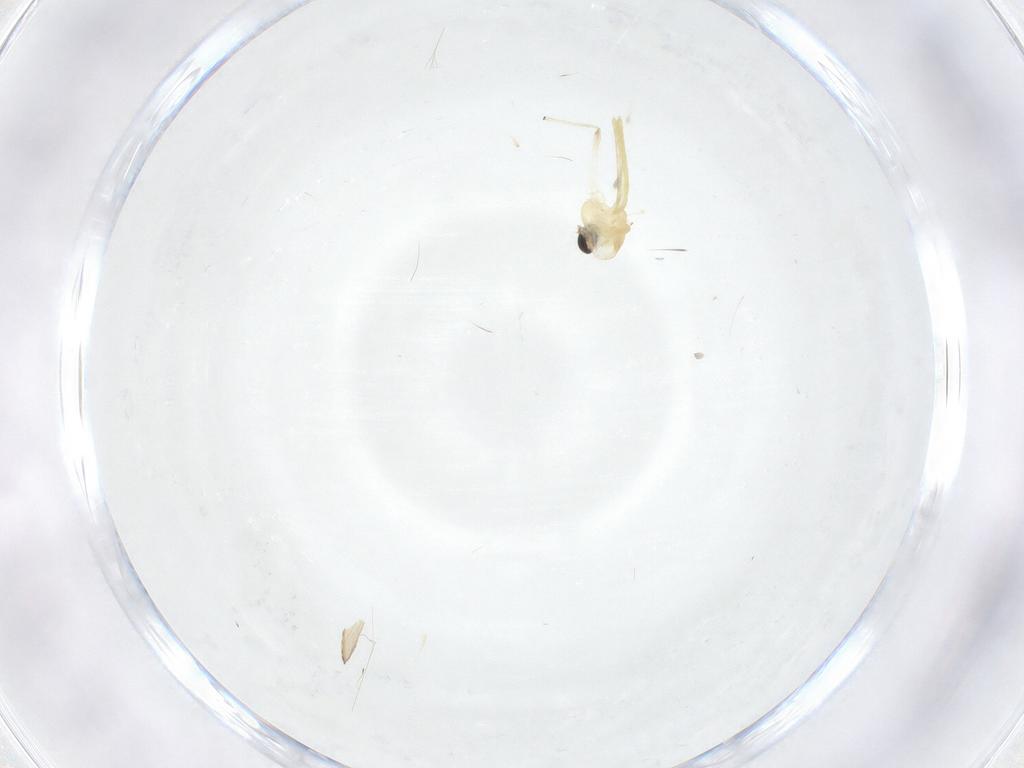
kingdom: Animalia
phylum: Arthropoda
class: Insecta
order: Diptera
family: Chironomidae
